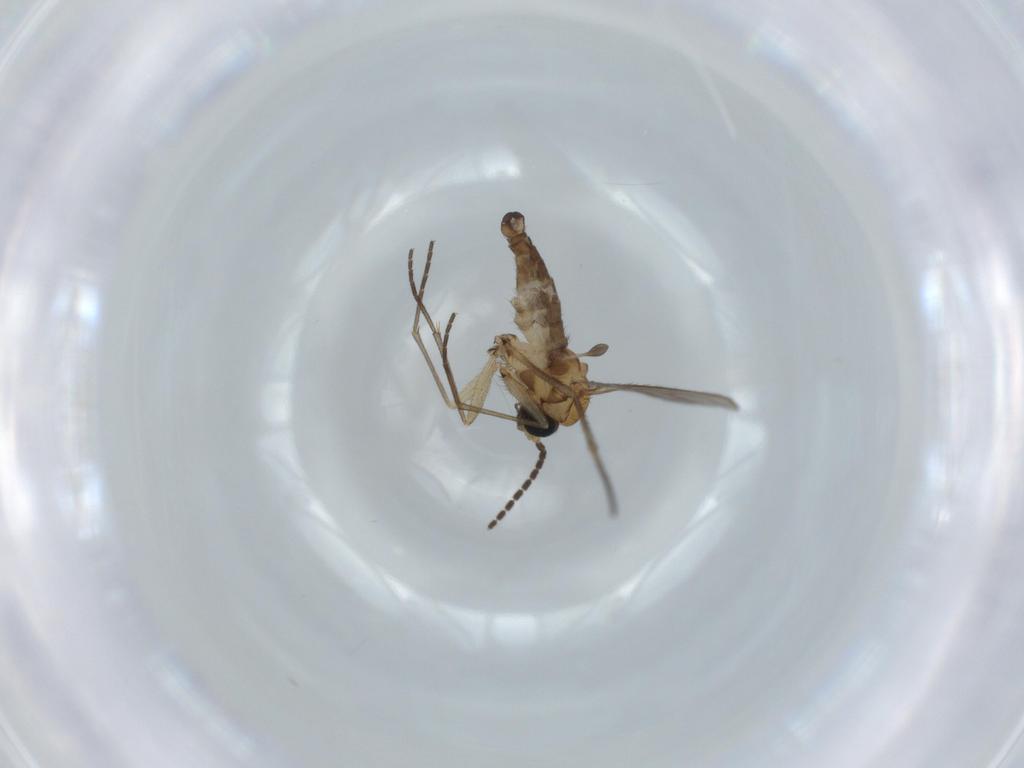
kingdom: Animalia
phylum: Arthropoda
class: Insecta
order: Diptera
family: Sciaridae
